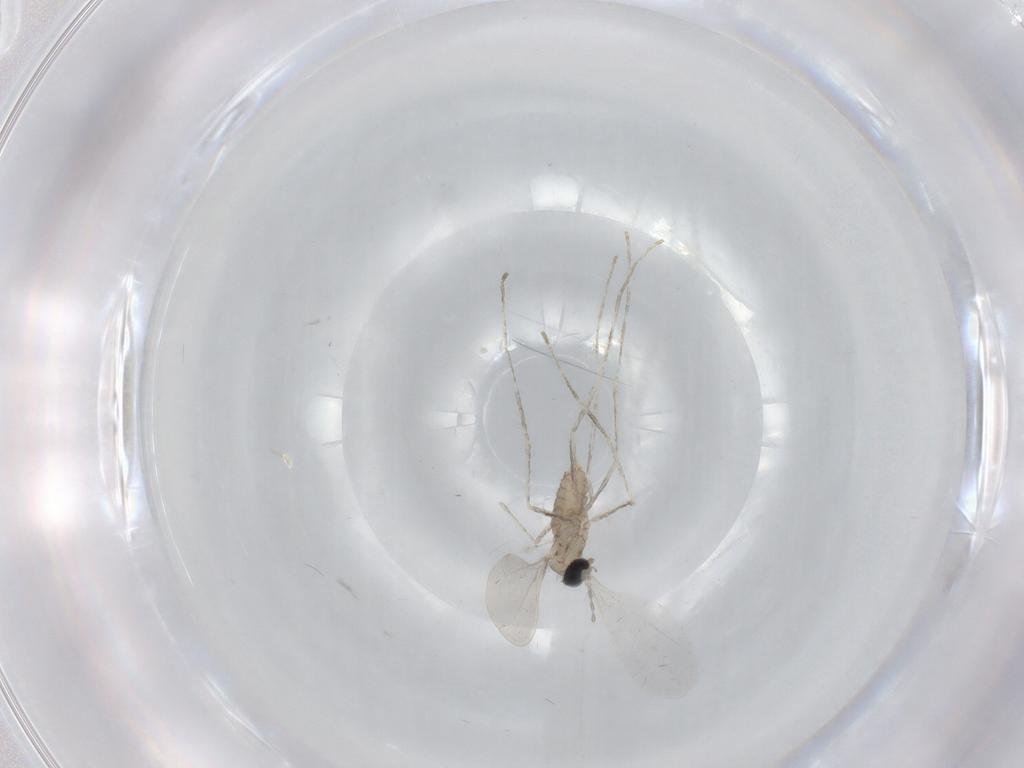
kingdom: Animalia
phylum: Arthropoda
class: Insecta
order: Diptera
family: Cecidomyiidae
